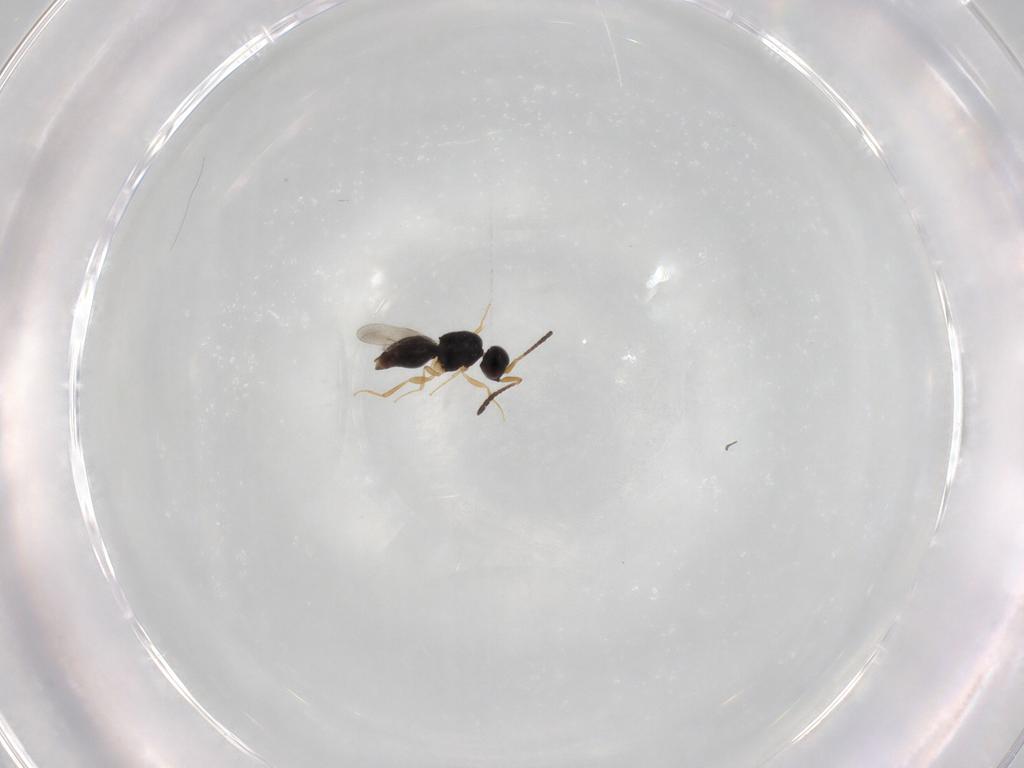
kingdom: Animalia
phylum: Arthropoda
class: Insecta
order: Hymenoptera
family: Ceraphronidae
